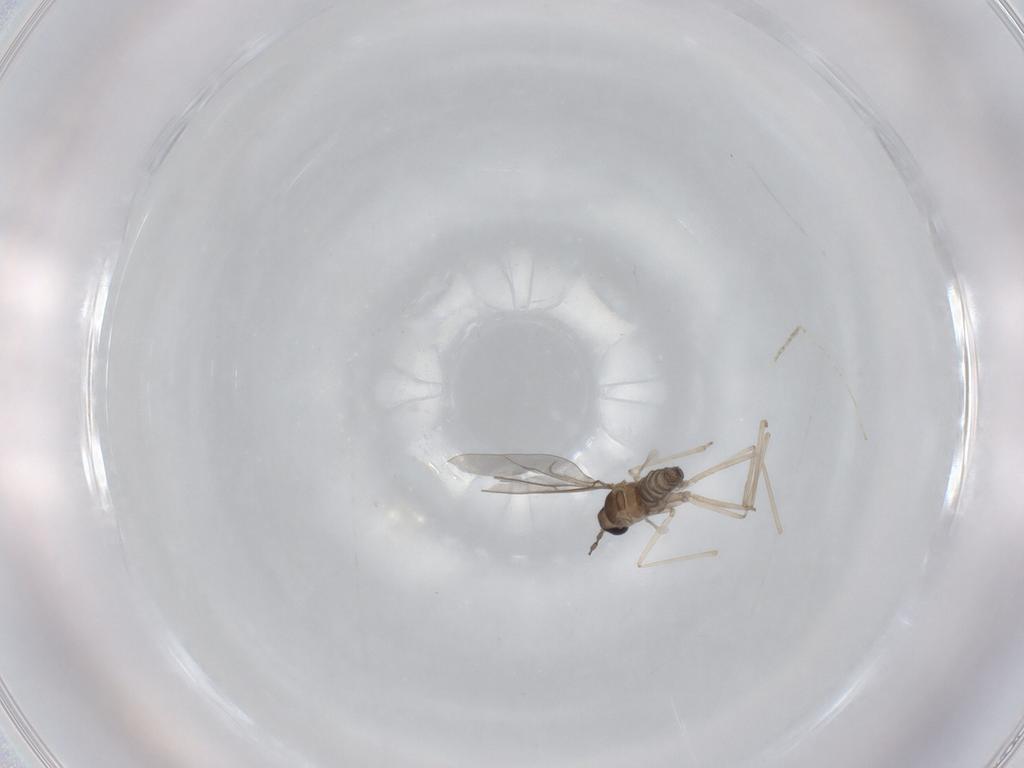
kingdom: Animalia
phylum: Arthropoda
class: Insecta
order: Diptera
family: Cecidomyiidae
